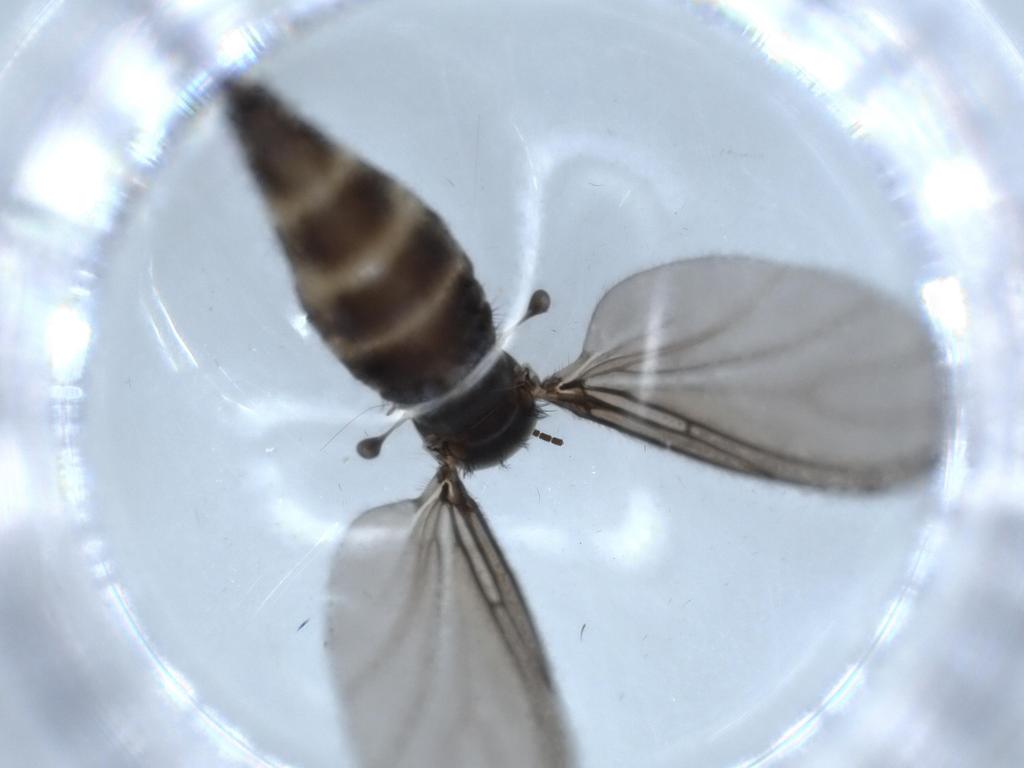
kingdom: Animalia
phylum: Arthropoda
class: Insecta
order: Diptera
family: Sciaridae
